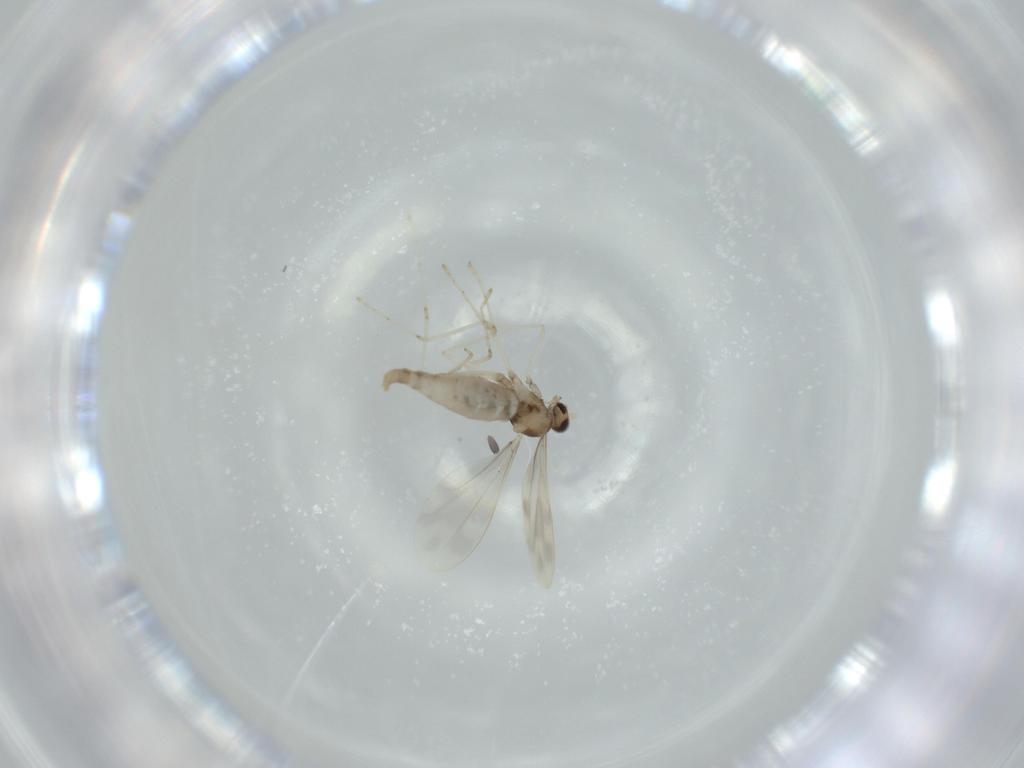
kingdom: Animalia
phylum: Arthropoda
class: Insecta
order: Diptera
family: Cecidomyiidae
